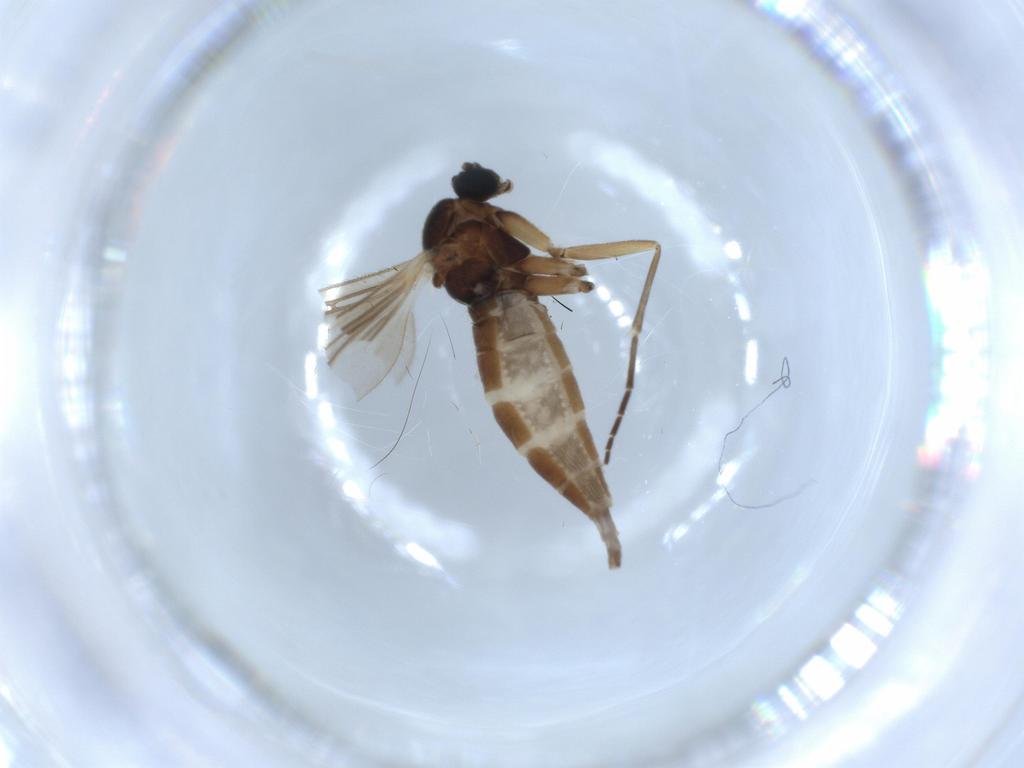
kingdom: Animalia
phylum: Arthropoda
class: Insecta
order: Diptera
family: Sciaridae
